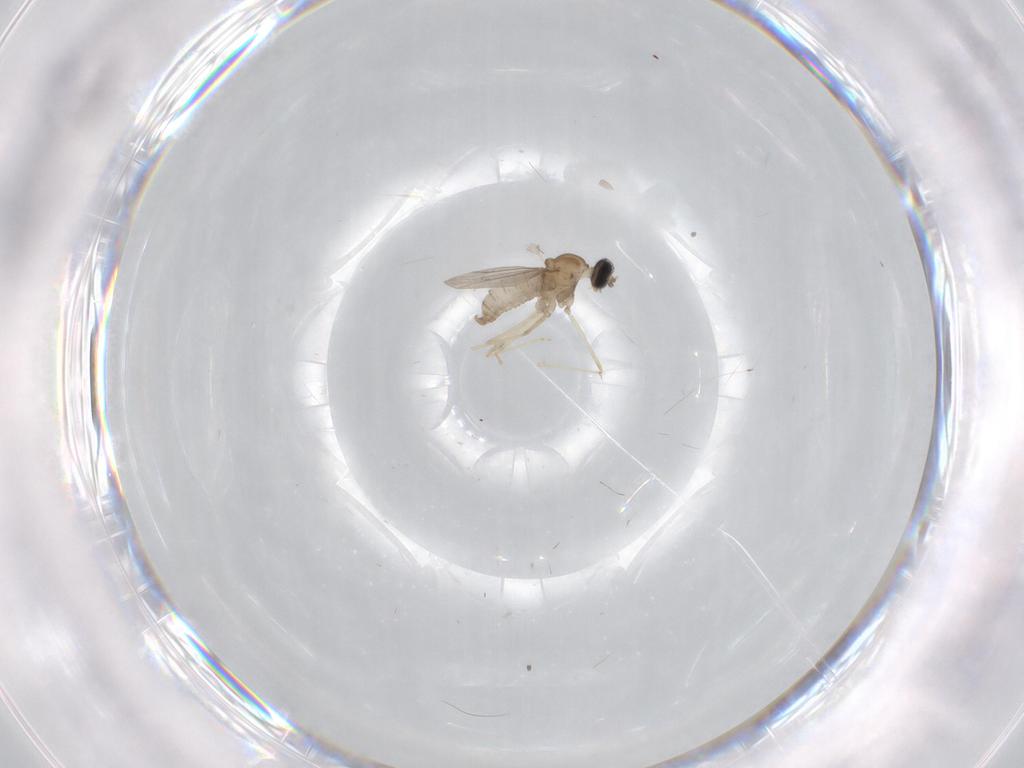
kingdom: Animalia
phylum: Arthropoda
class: Insecta
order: Diptera
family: Cecidomyiidae
